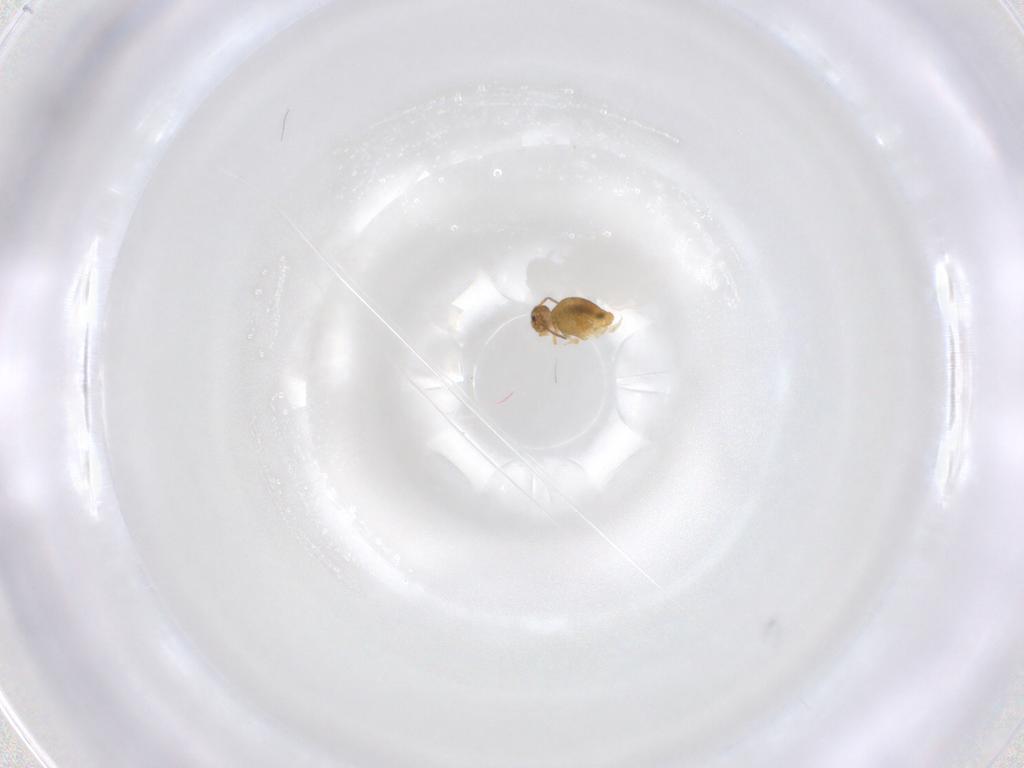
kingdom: Animalia
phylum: Arthropoda
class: Collembola
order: Symphypleona
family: Katiannidae
